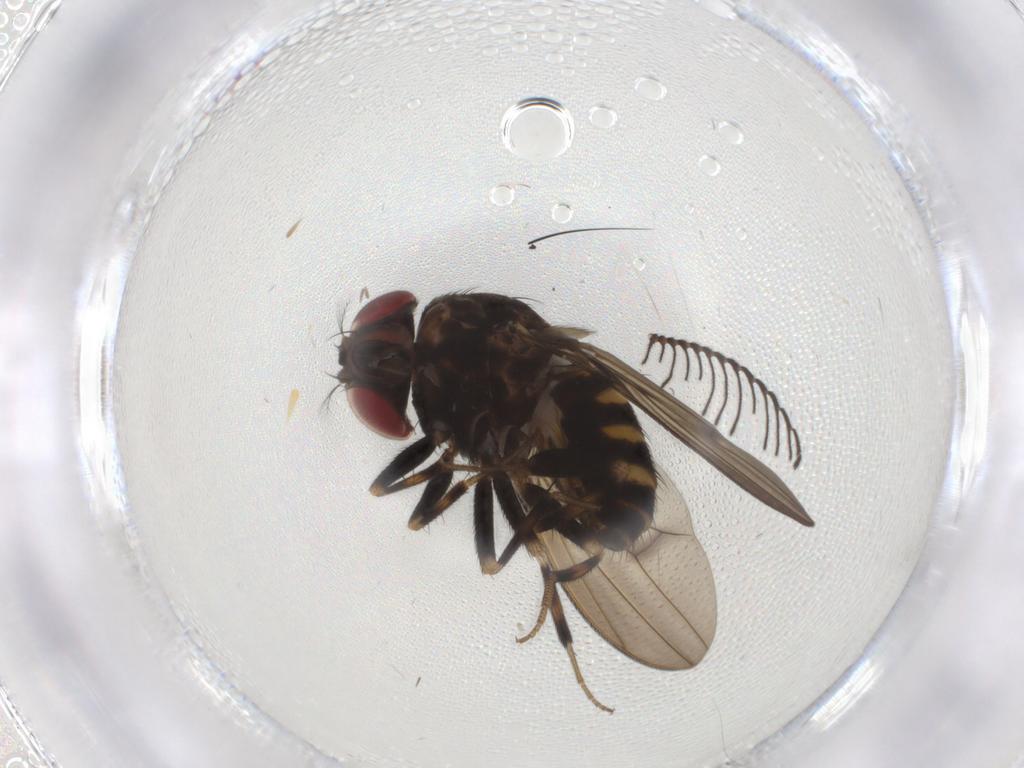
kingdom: Animalia
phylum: Arthropoda
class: Insecta
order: Diptera
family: Drosophilidae
